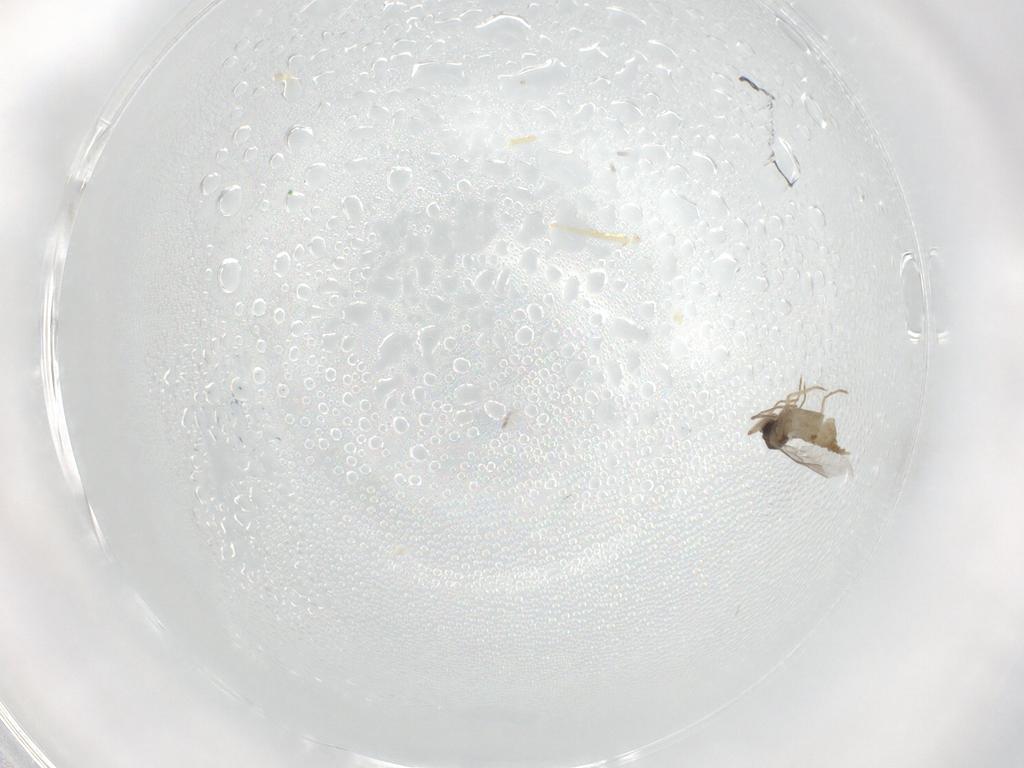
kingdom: Animalia
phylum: Arthropoda
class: Insecta
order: Diptera
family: Cecidomyiidae
